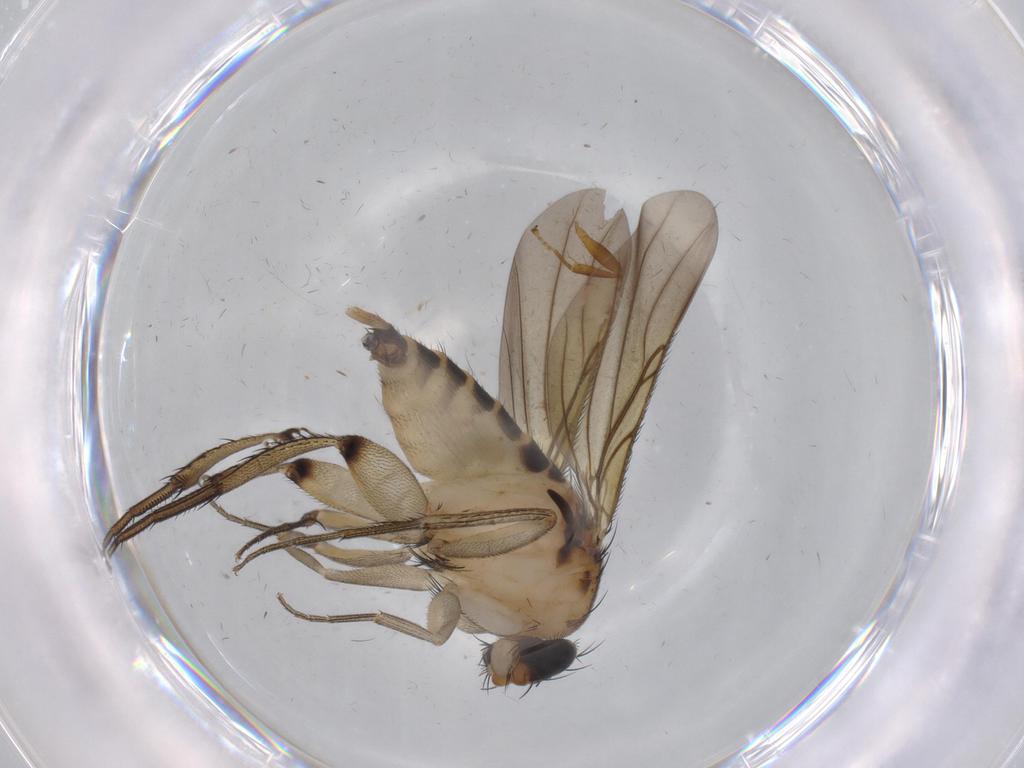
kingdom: Animalia
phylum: Arthropoda
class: Insecta
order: Diptera
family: Phoridae
